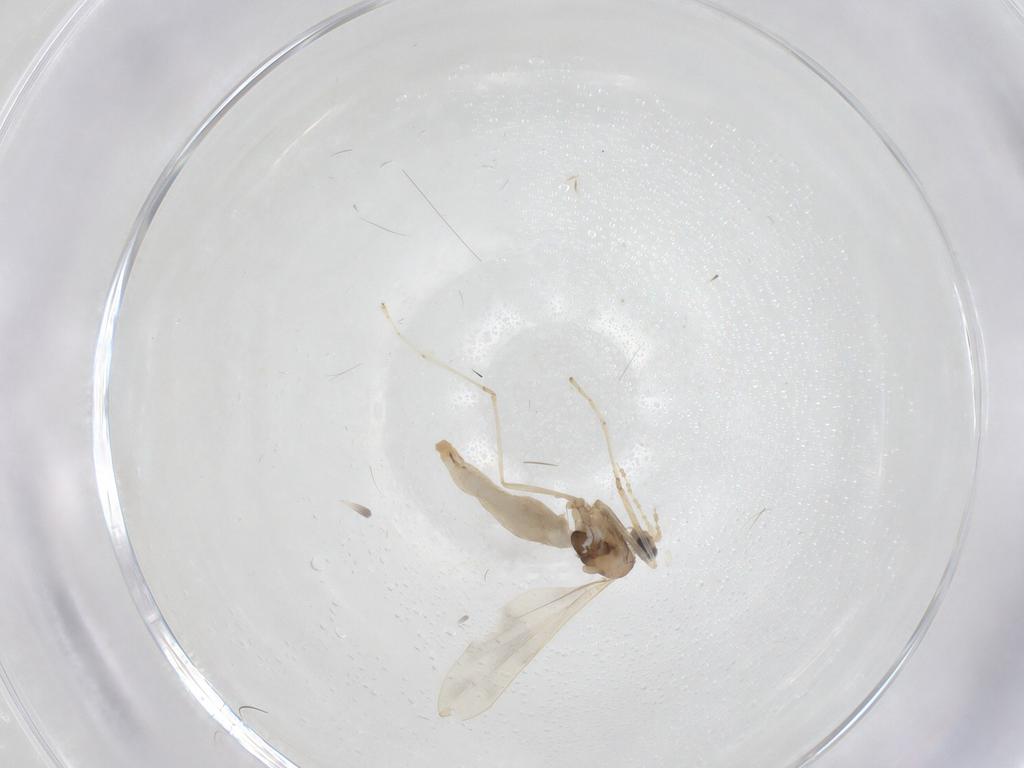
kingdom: Animalia
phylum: Arthropoda
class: Insecta
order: Diptera
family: Cecidomyiidae
